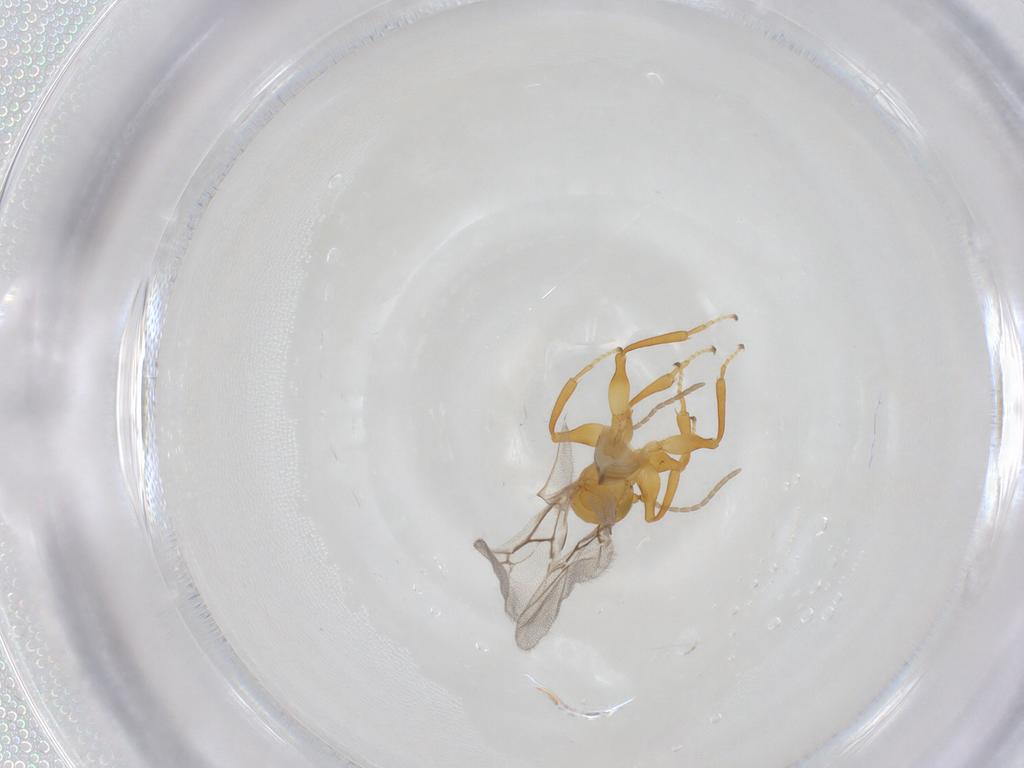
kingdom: Animalia
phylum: Arthropoda
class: Insecta
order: Hymenoptera
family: Cynipidae
